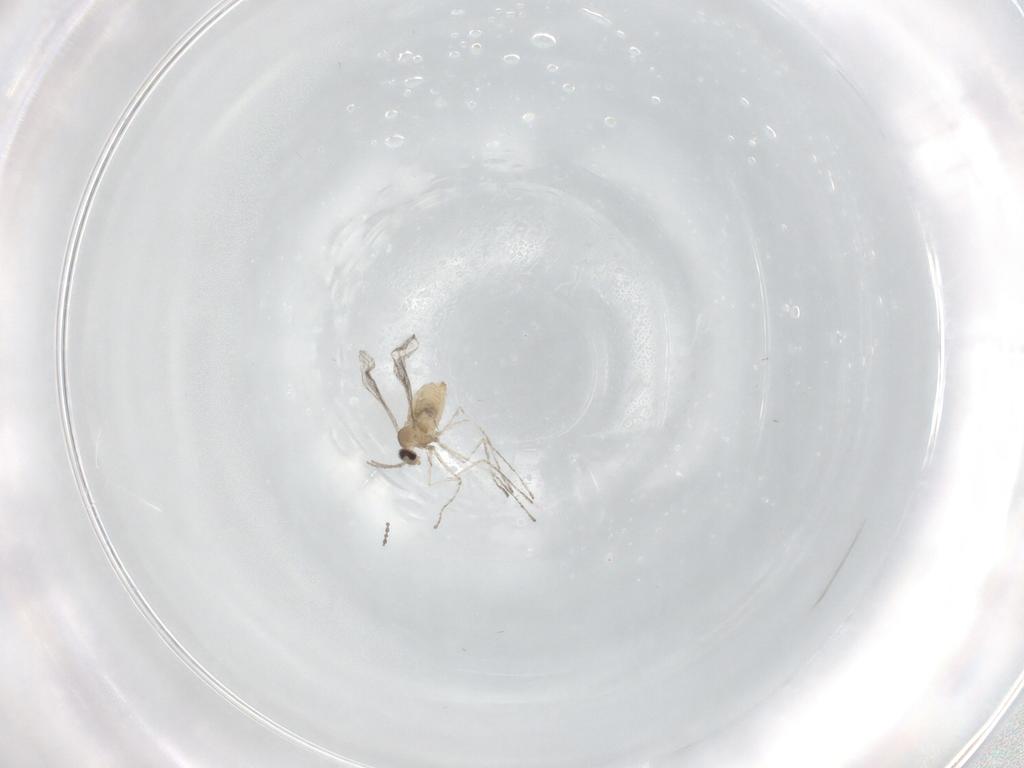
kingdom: Animalia
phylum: Arthropoda
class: Insecta
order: Diptera
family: Cecidomyiidae
